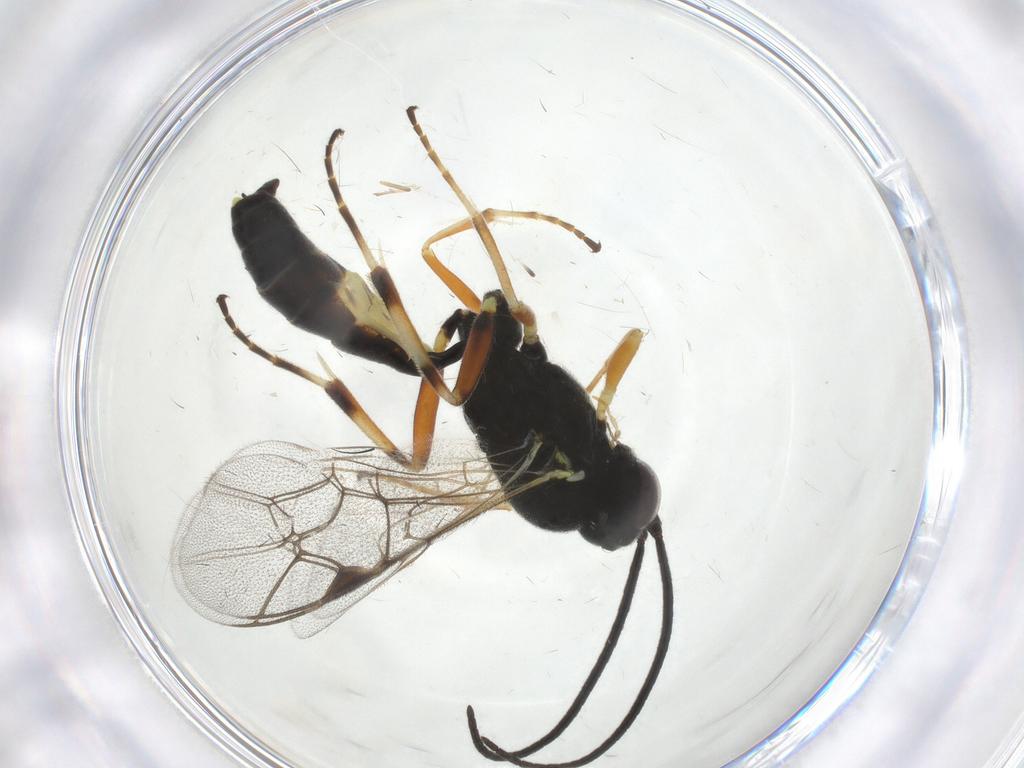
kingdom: Animalia
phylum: Arthropoda
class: Insecta
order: Hymenoptera
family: Ichneumonidae
